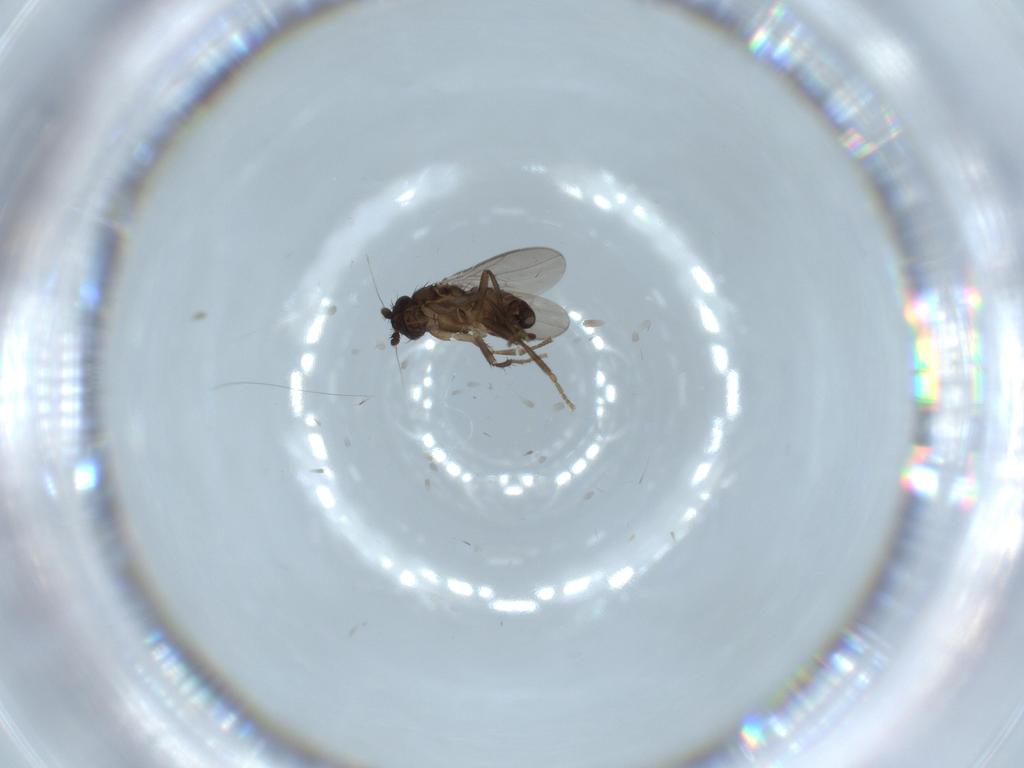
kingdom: Animalia
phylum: Arthropoda
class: Insecta
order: Diptera
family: Sphaeroceridae
